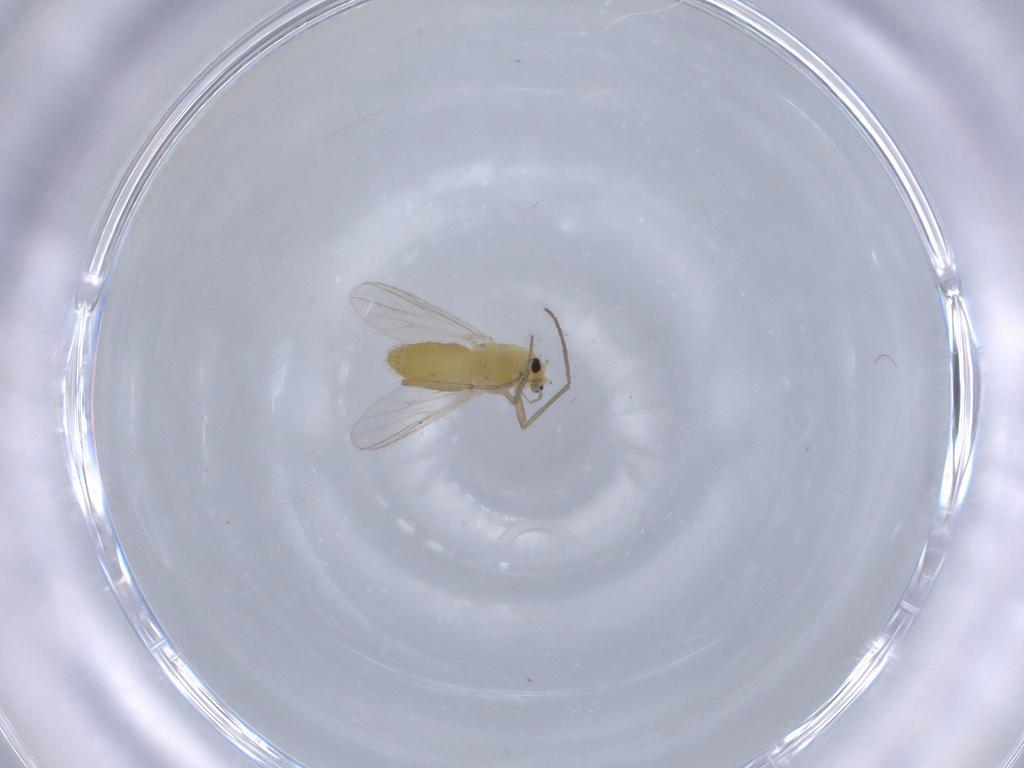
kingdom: Animalia
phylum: Arthropoda
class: Insecta
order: Diptera
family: Chironomidae
